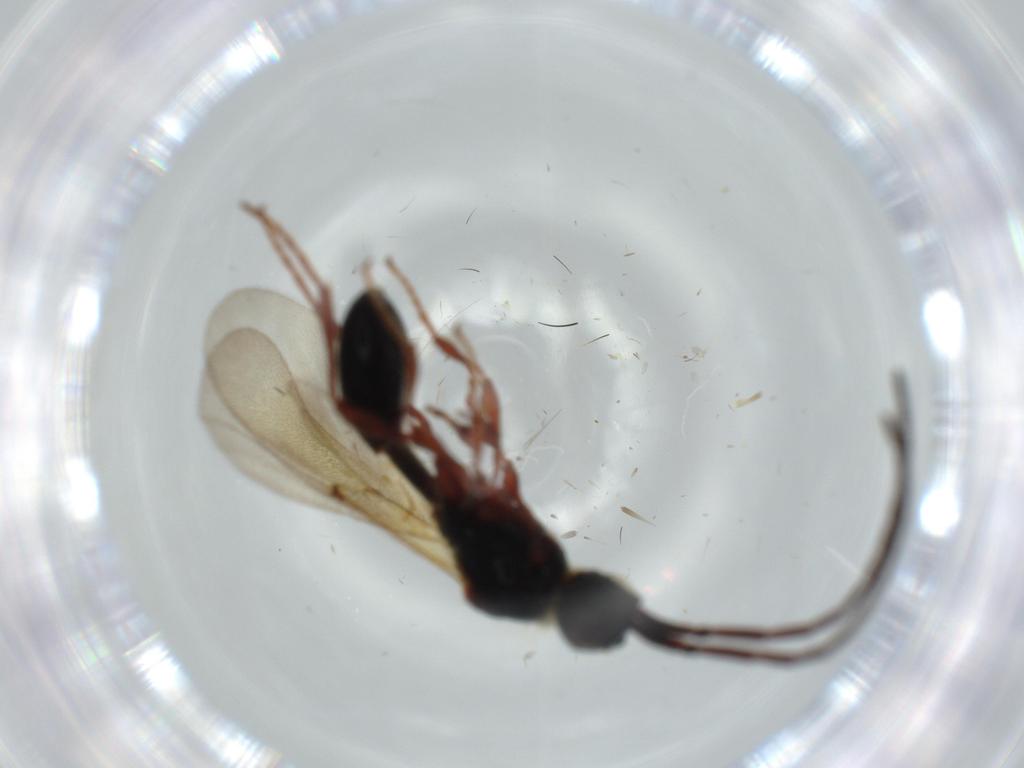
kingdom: Animalia
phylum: Arthropoda
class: Insecta
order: Hymenoptera
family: Diapriidae
